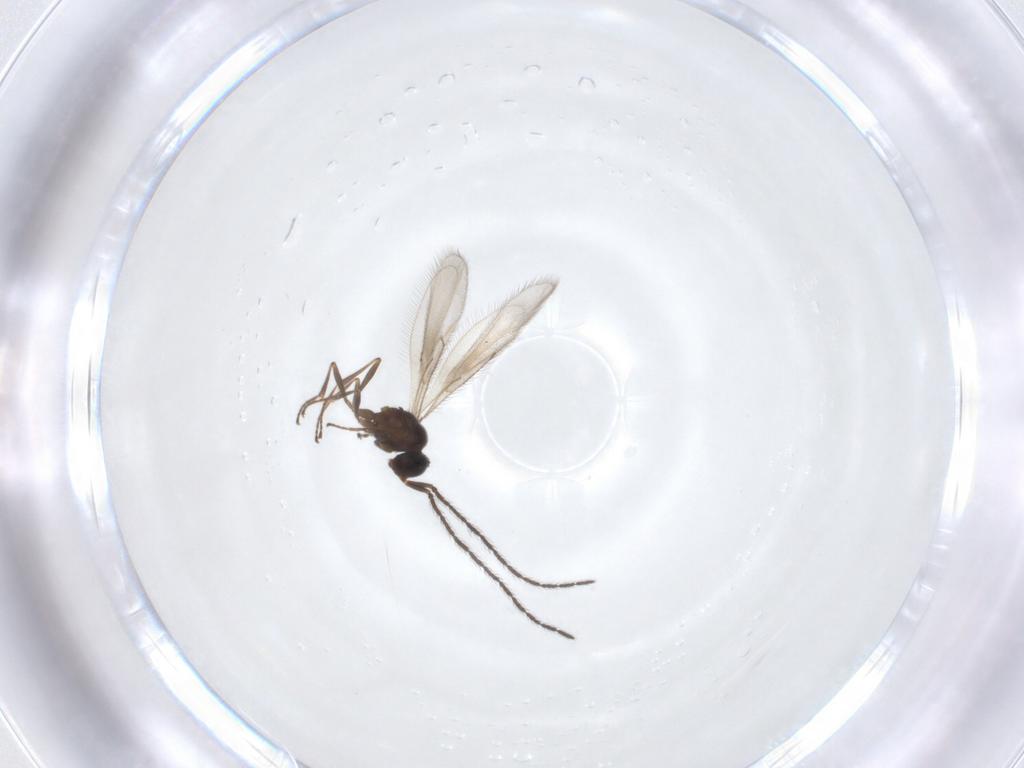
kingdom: Animalia
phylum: Arthropoda
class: Insecta
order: Hymenoptera
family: Scelionidae
